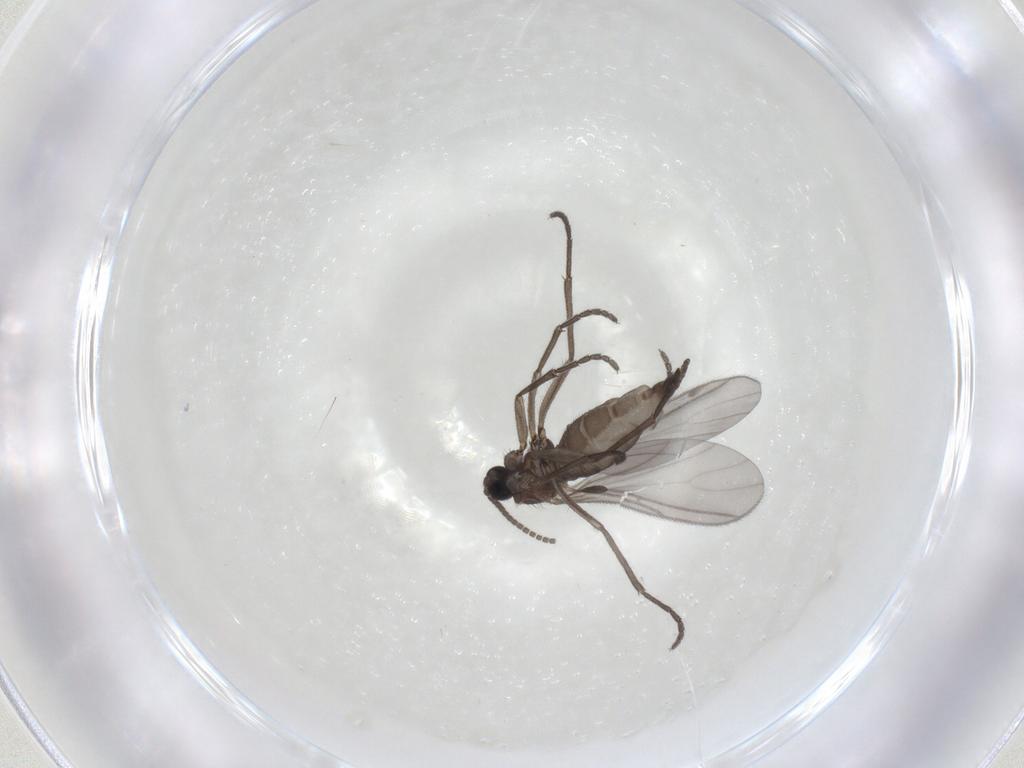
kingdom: Animalia
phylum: Arthropoda
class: Insecta
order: Diptera
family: Sciaridae
